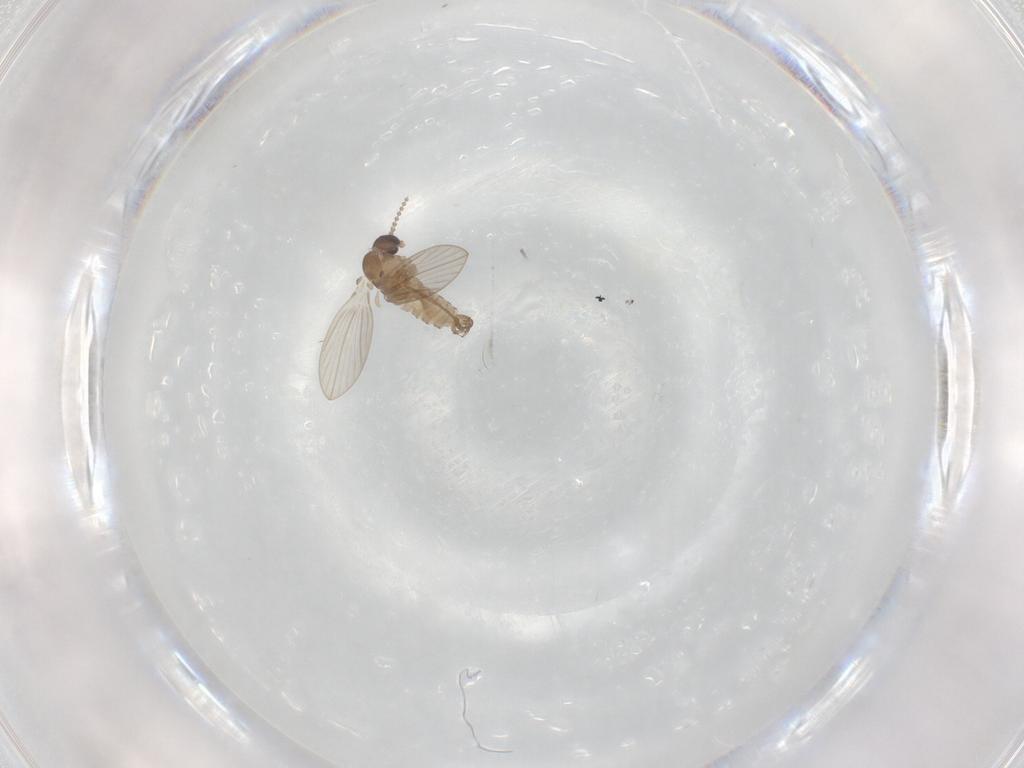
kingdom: Animalia
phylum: Arthropoda
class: Insecta
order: Diptera
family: Psychodidae
